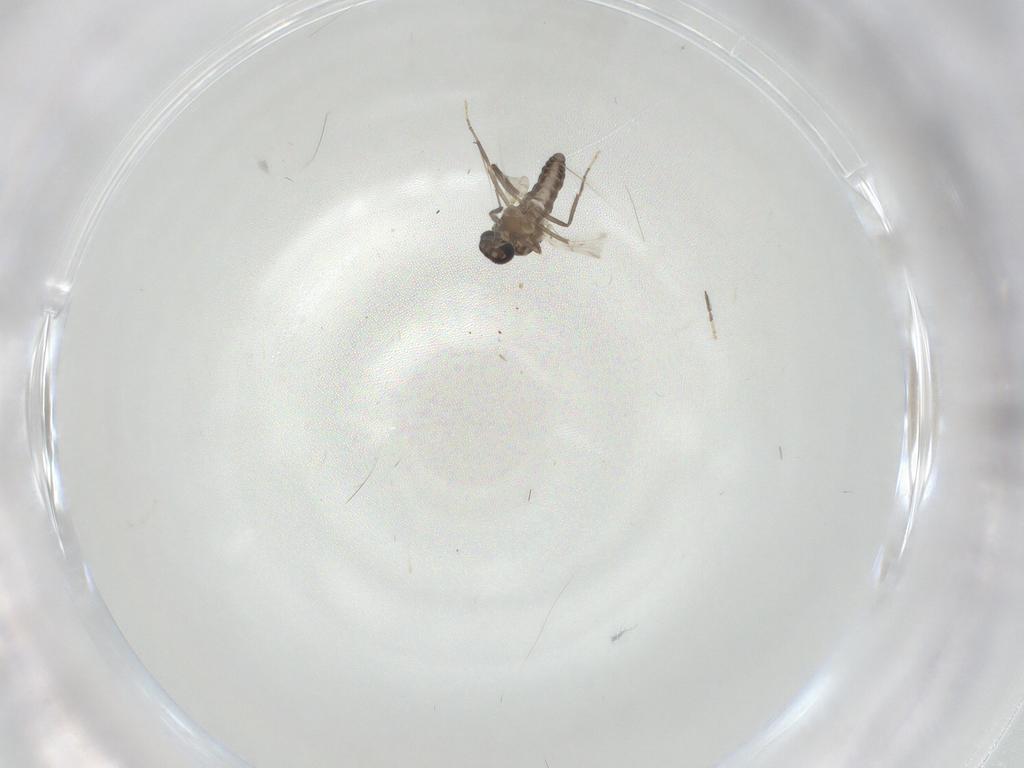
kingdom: Animalia
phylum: Arthropoda
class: Insecta
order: Diptera
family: Ceratopogonidae
